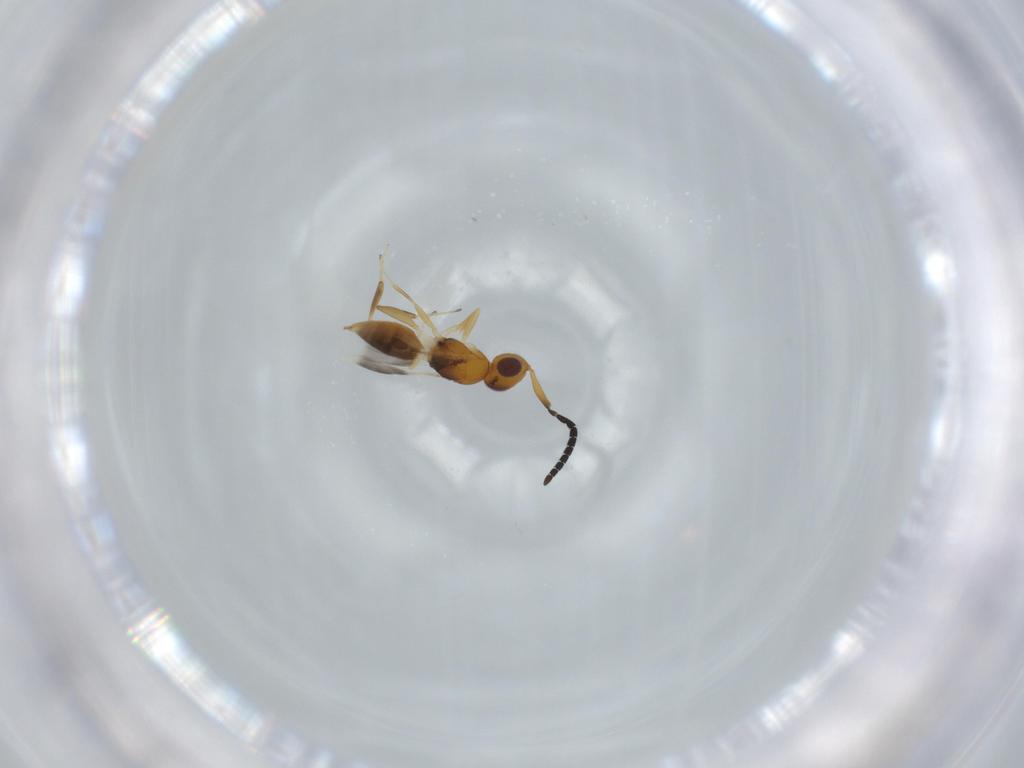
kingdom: Animalia
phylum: Arthropoda
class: Insecta
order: Hymenoptera
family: Megaspilidae
